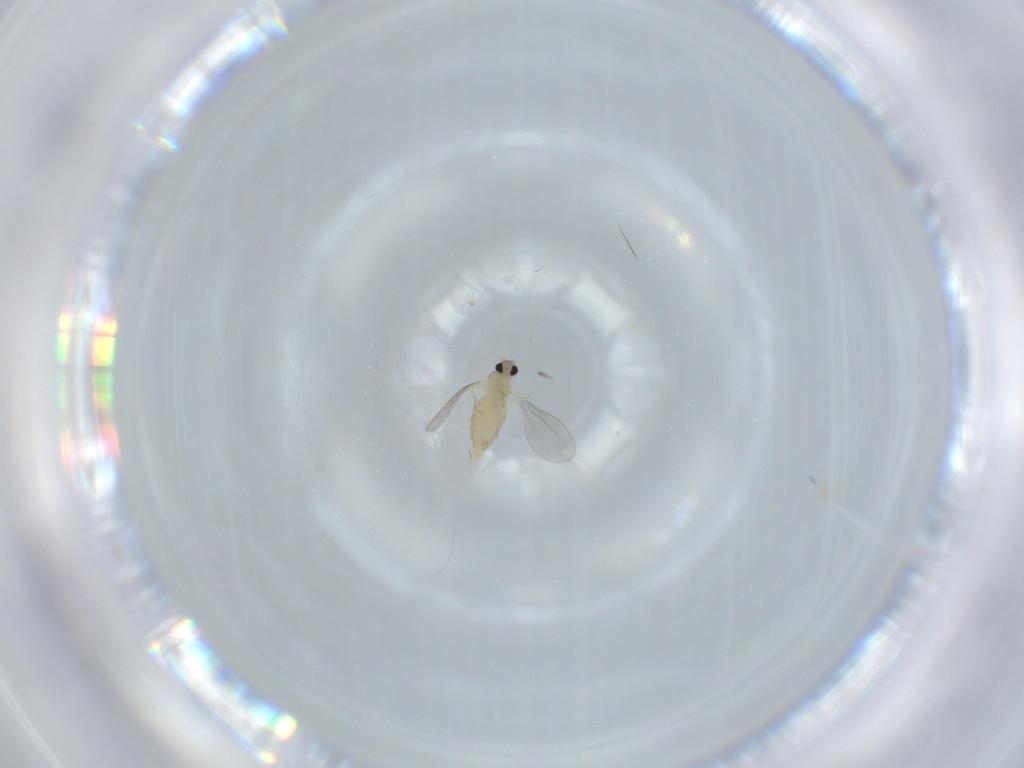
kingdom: Animalia
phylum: Arthropoda
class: Insecta
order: Diptera
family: Cecidomyiidae
